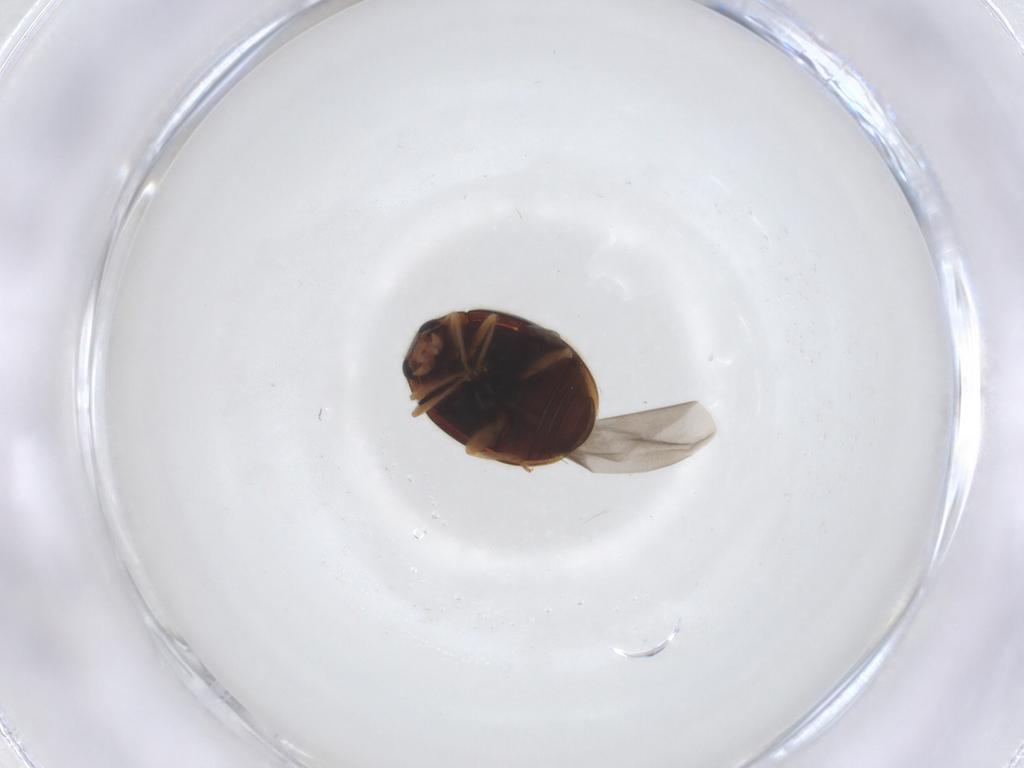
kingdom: Animalia
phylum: Arthropoda
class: Insecta
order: Coleoptera
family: Coccinellidae
